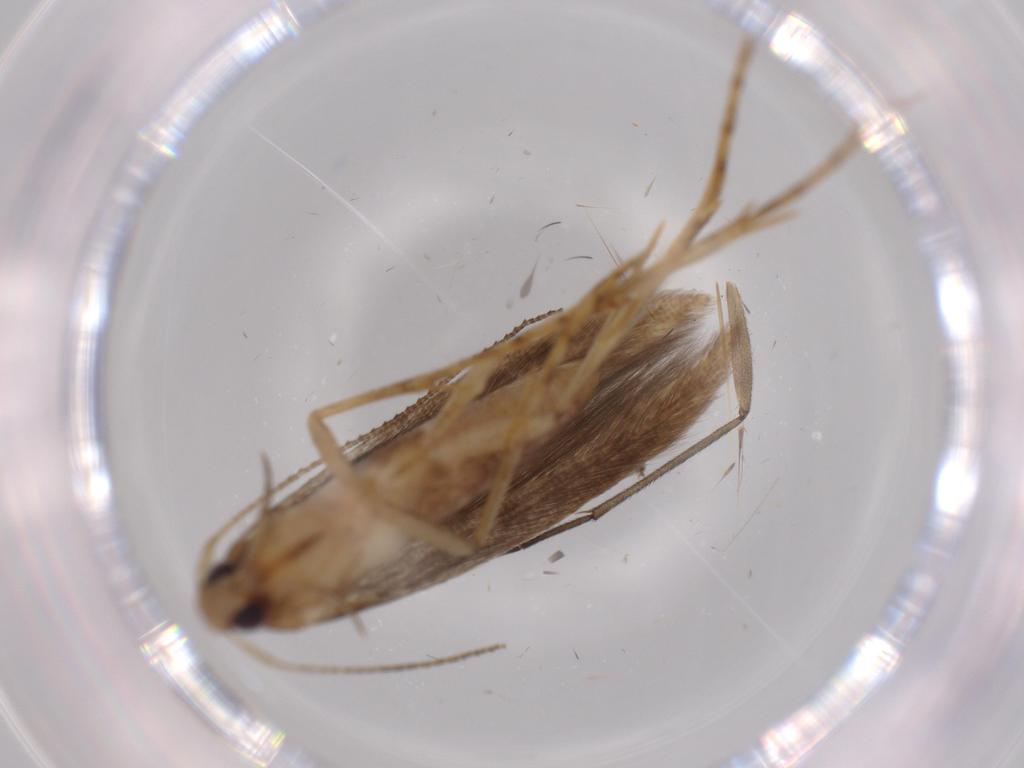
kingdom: Animalia
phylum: Arthropoda
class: Insecta
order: Lepidoptera
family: Heliodinidae
